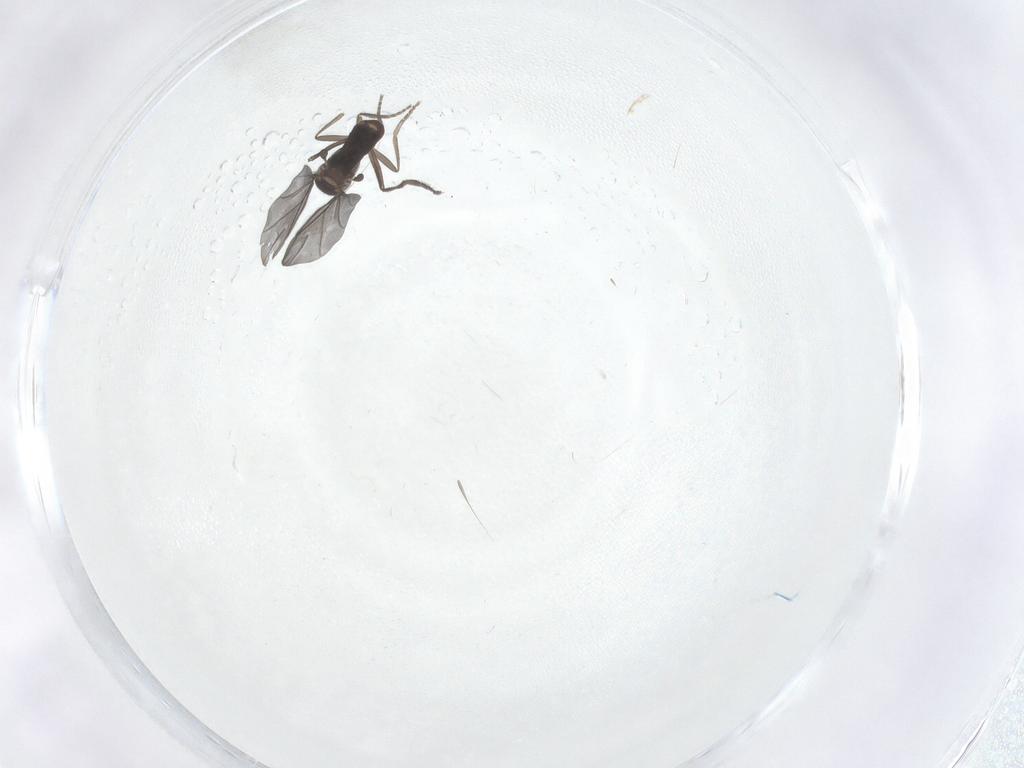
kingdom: Animalia
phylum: Arthropoda
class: Insecta
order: Diptera
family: Phoridae
